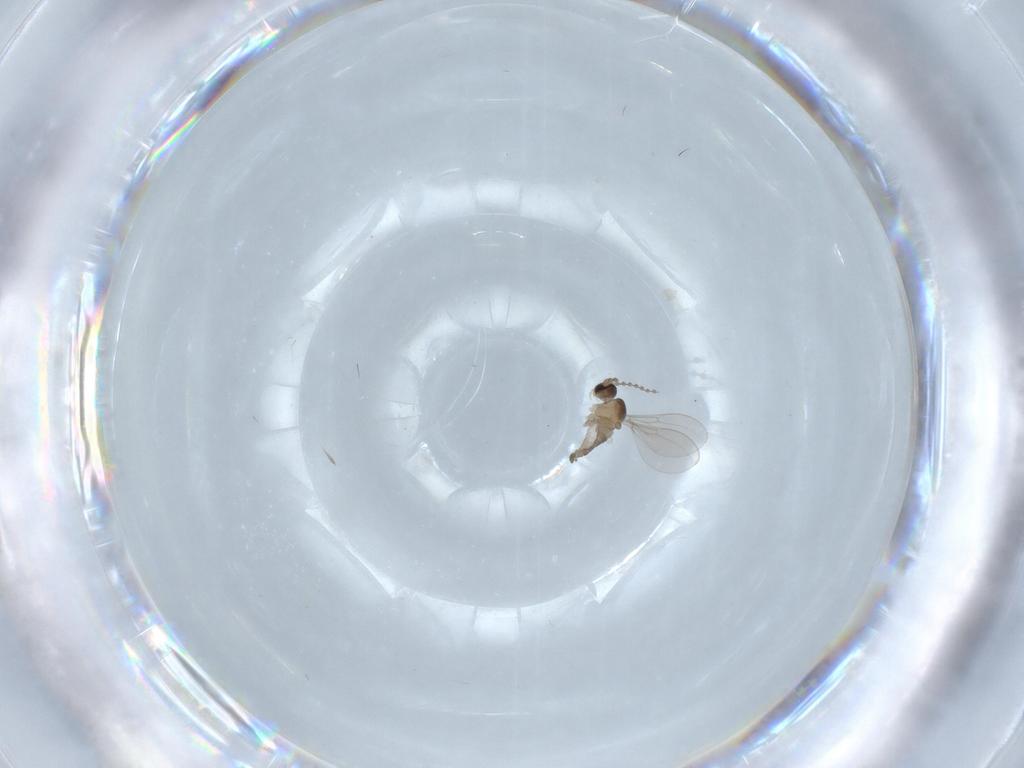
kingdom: Animalia
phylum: Arthropoda
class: Insecta
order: Diptera
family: Cecidomyiidae
